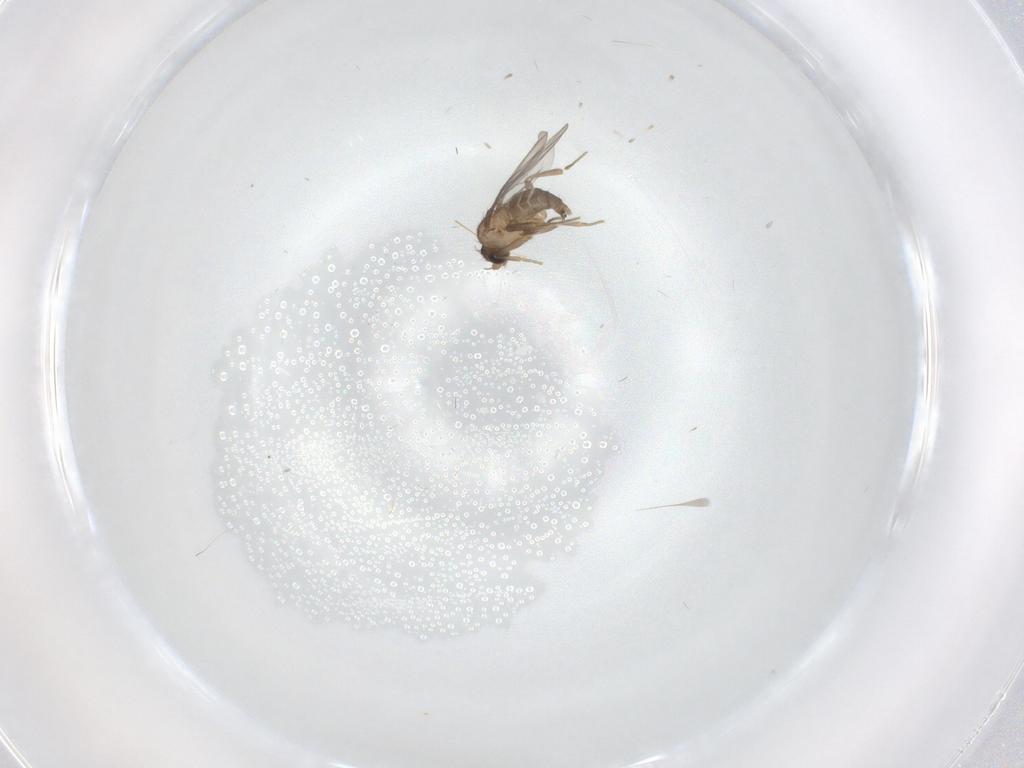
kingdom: Animalia
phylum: Arthropoda
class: Insecta
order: Diptera
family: Cecidomyiidae
